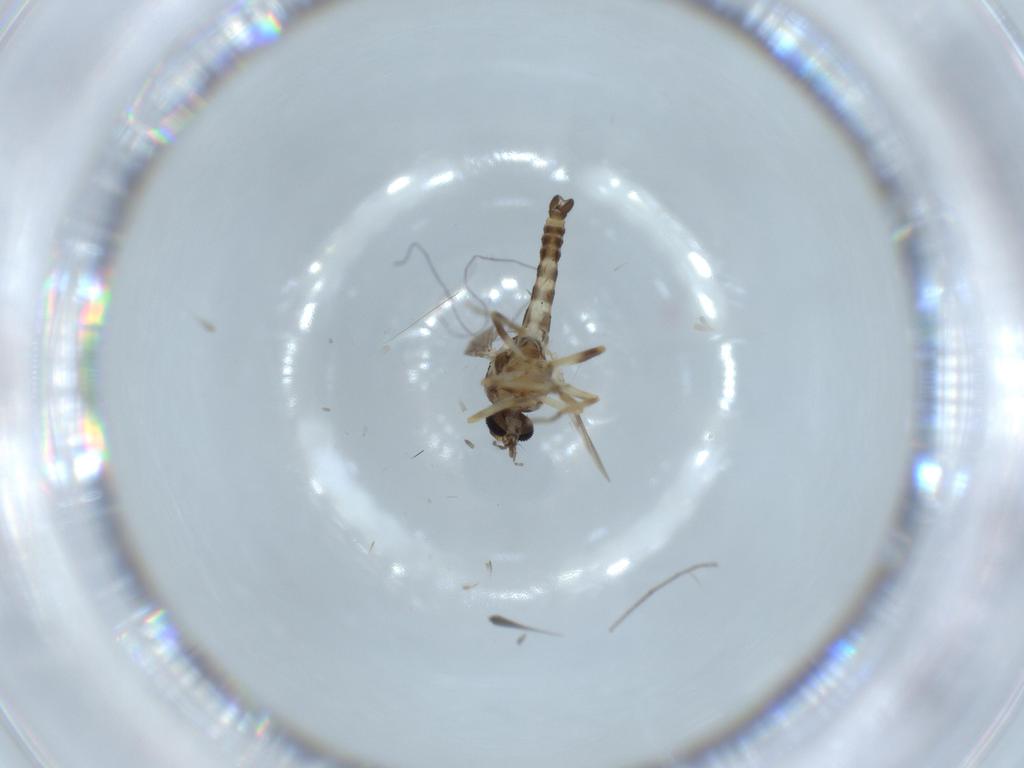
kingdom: Animalia
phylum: Arthropoda
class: Insecta
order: Diptera
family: Ceratopogonidae
